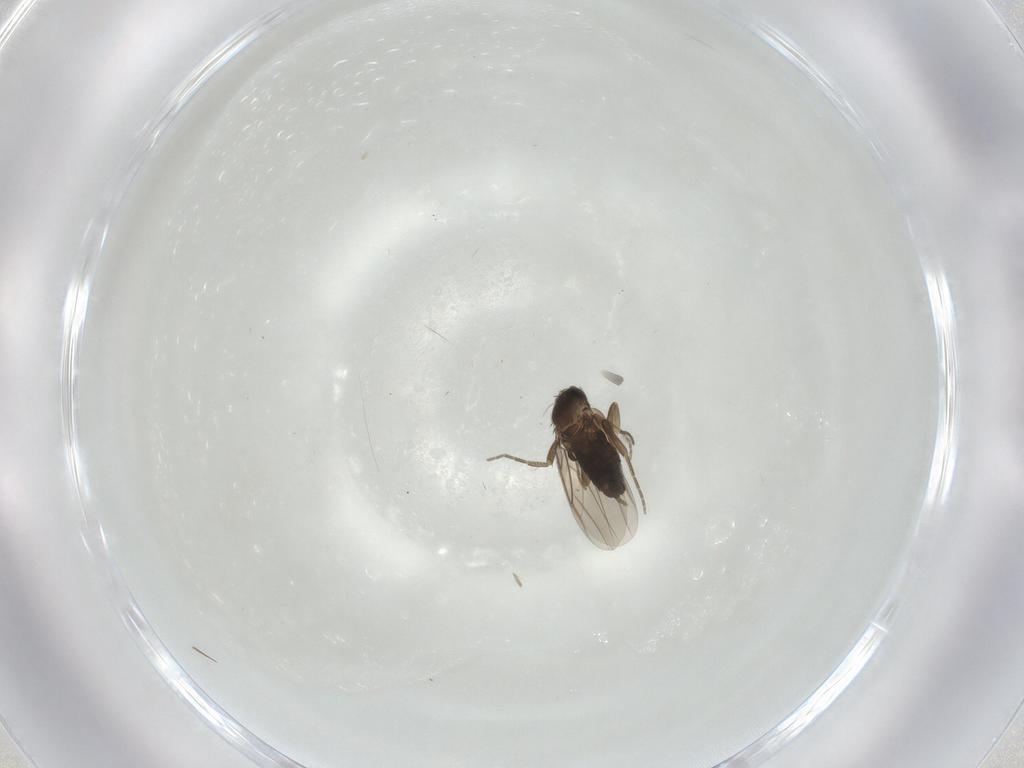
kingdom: Animalia
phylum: Arthropoda
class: Insecta
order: Diptera
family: Phoridae
